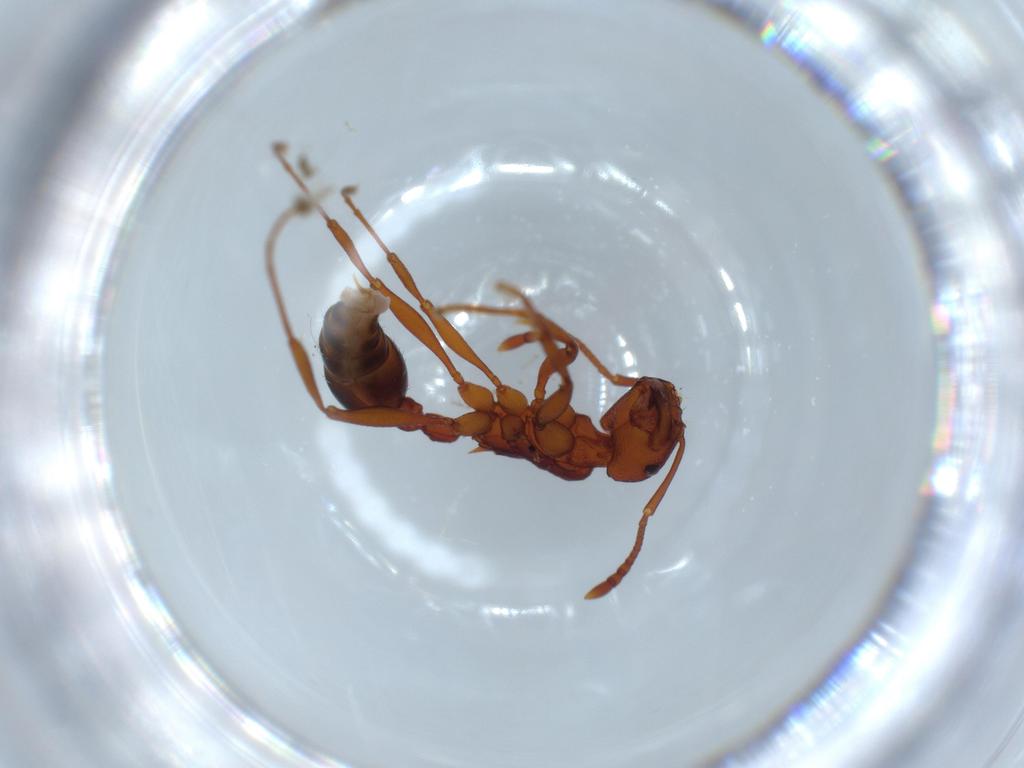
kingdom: Animalia
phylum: Arthropoda
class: Insecta
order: Hymenoptera
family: Formicidae
